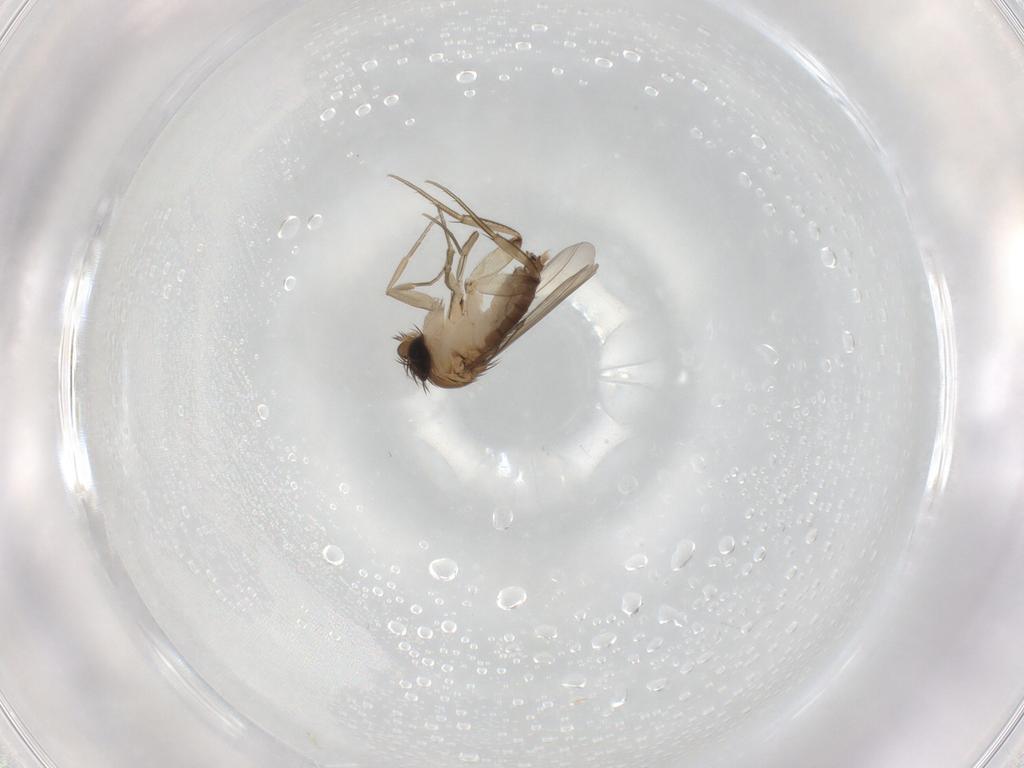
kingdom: Animalia
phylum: Arthropoda
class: Insecta
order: Diptera
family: Phoridae
